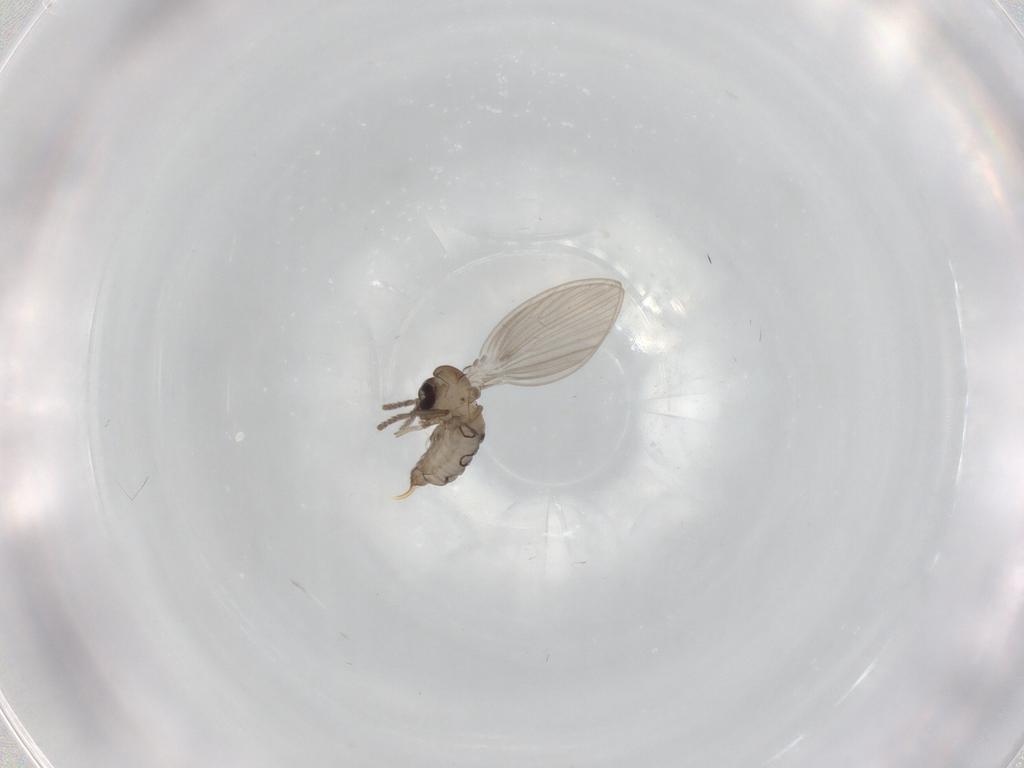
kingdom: Animalia
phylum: Arthropoda
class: Insecta
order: Diptera
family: Psychodidae
